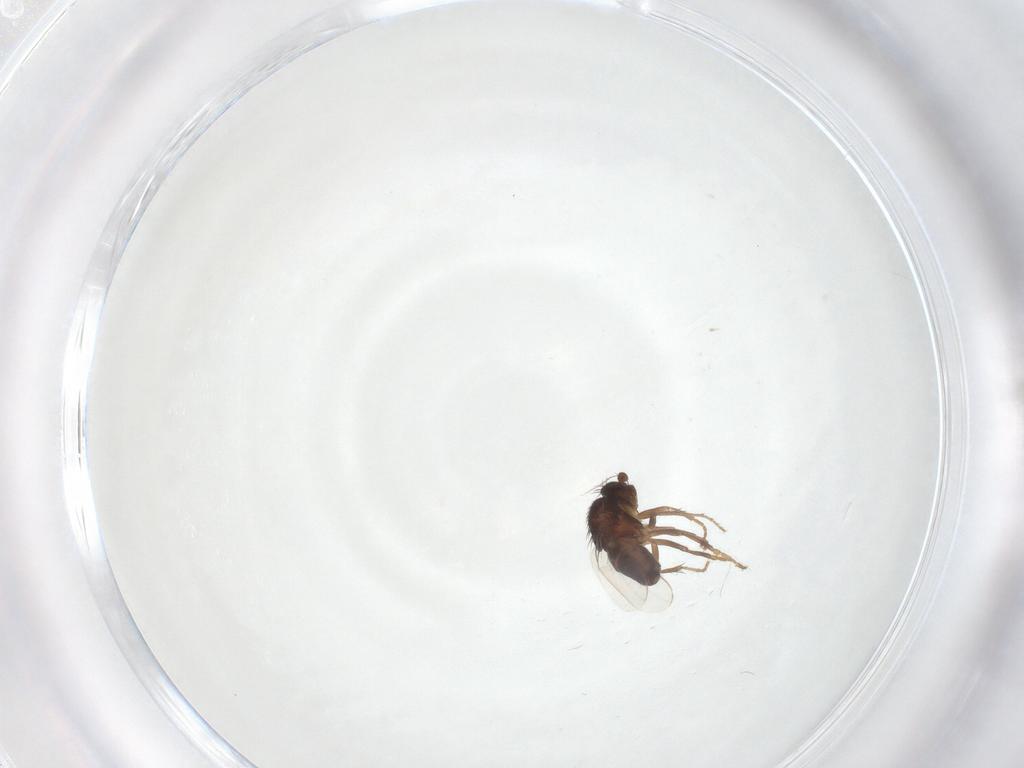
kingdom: Animalia
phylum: Arthropoda
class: Insecta
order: Diptera
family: Sphaeroceridae
